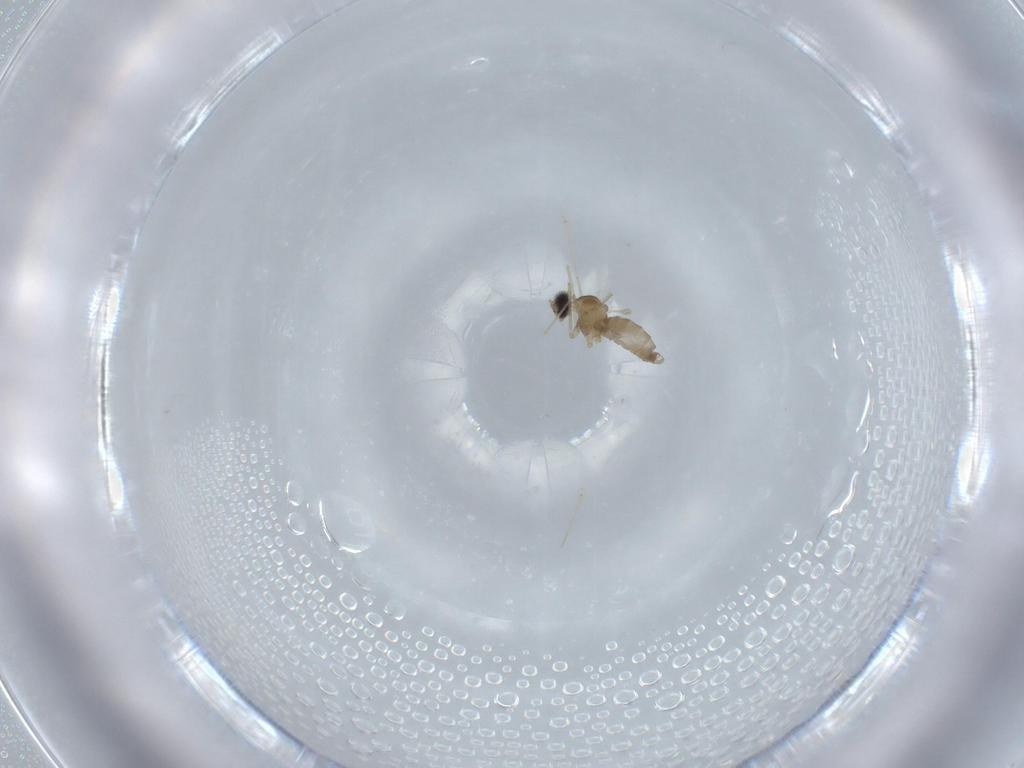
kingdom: Animalia
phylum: Arthropoda
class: Insecta
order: Diptera
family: Cecidomyiidae
